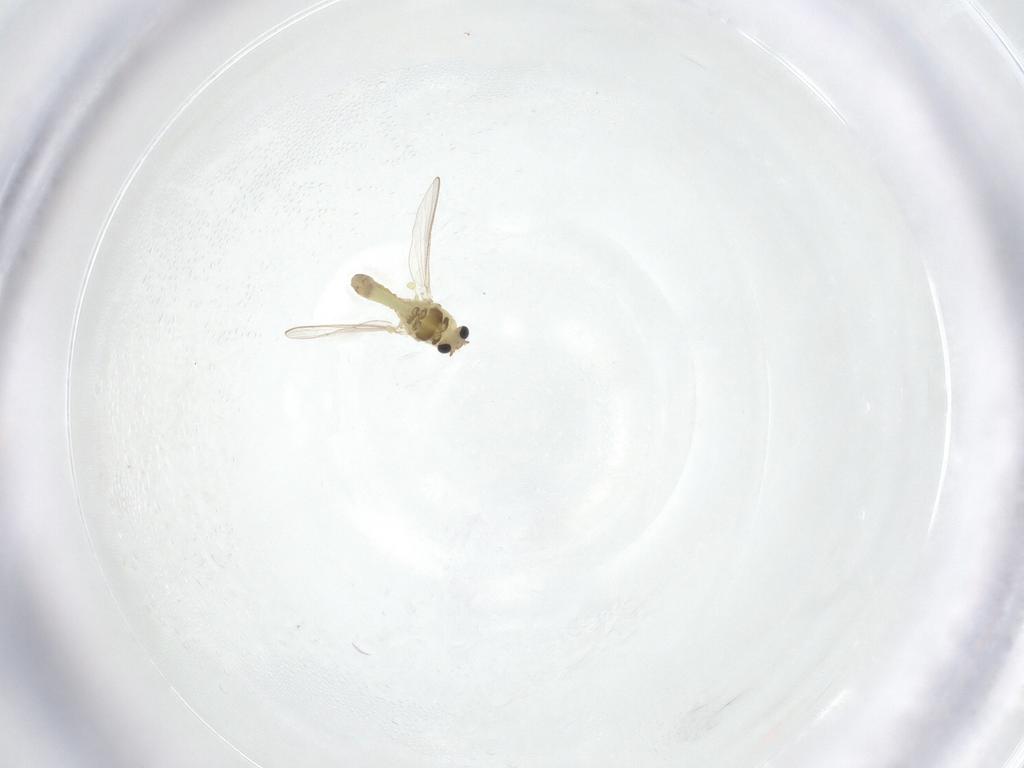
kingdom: Animalia
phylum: Arthropoda
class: Insecta
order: Diptera
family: Chironomidae
